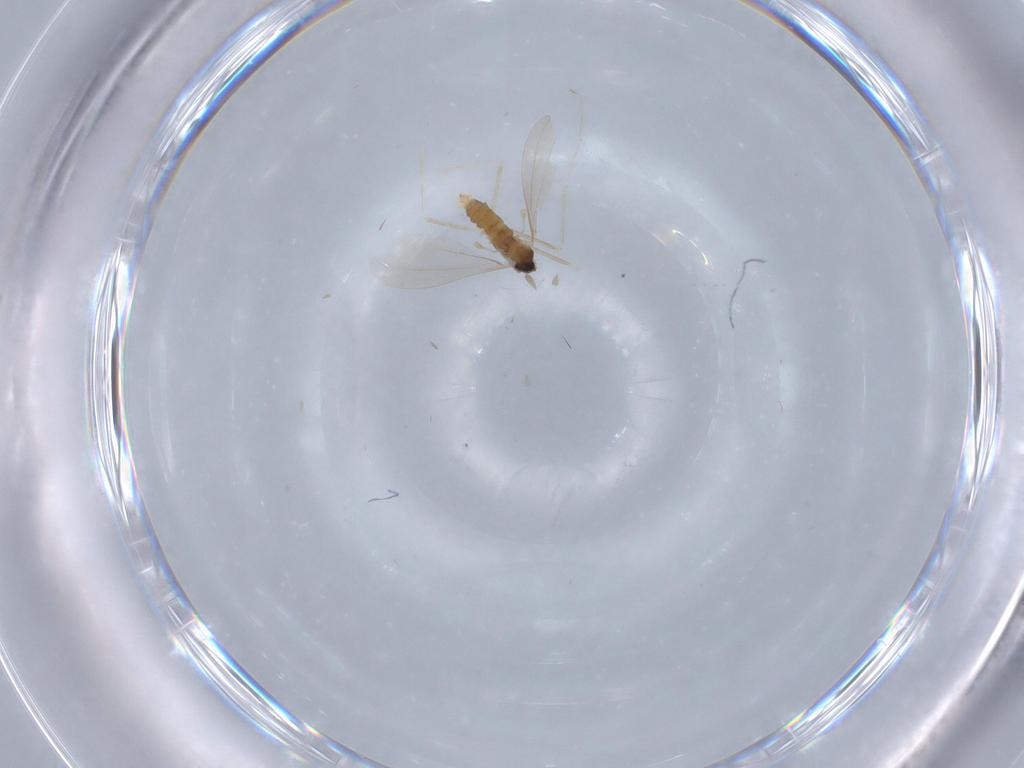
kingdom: Animalia
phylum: Arthropoda
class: Insecta
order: Diptera
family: Cecidomyiidae
